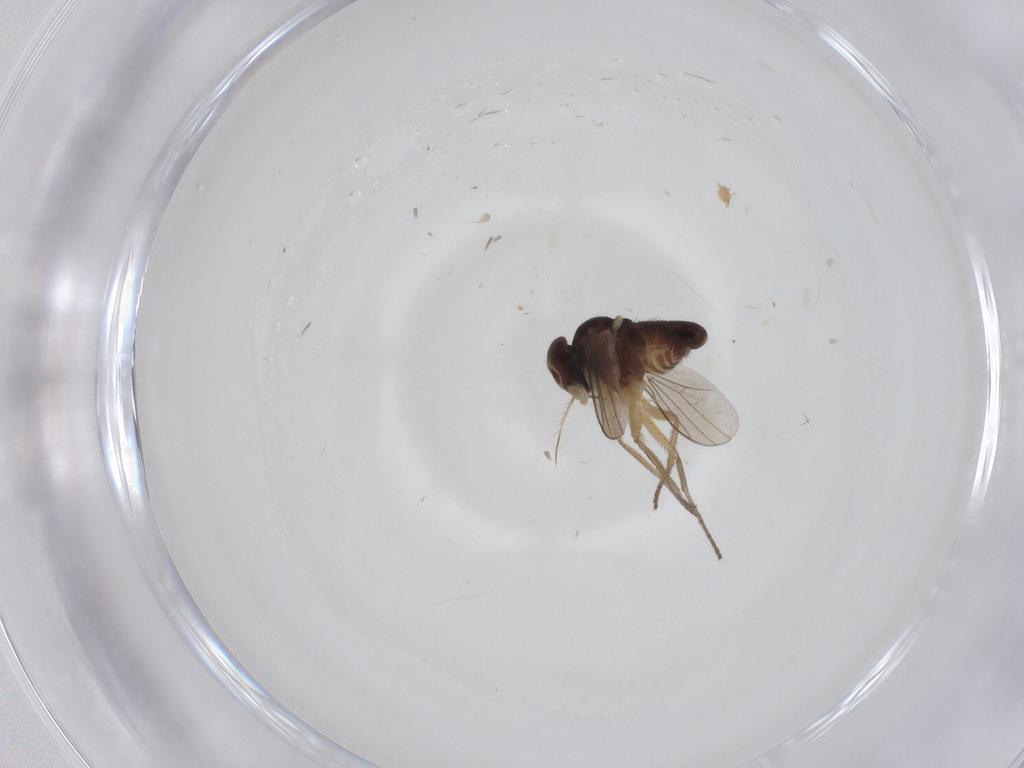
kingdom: Animalia
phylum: Arthropoda
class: Insecta
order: Diptera
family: Dolichopodidae
